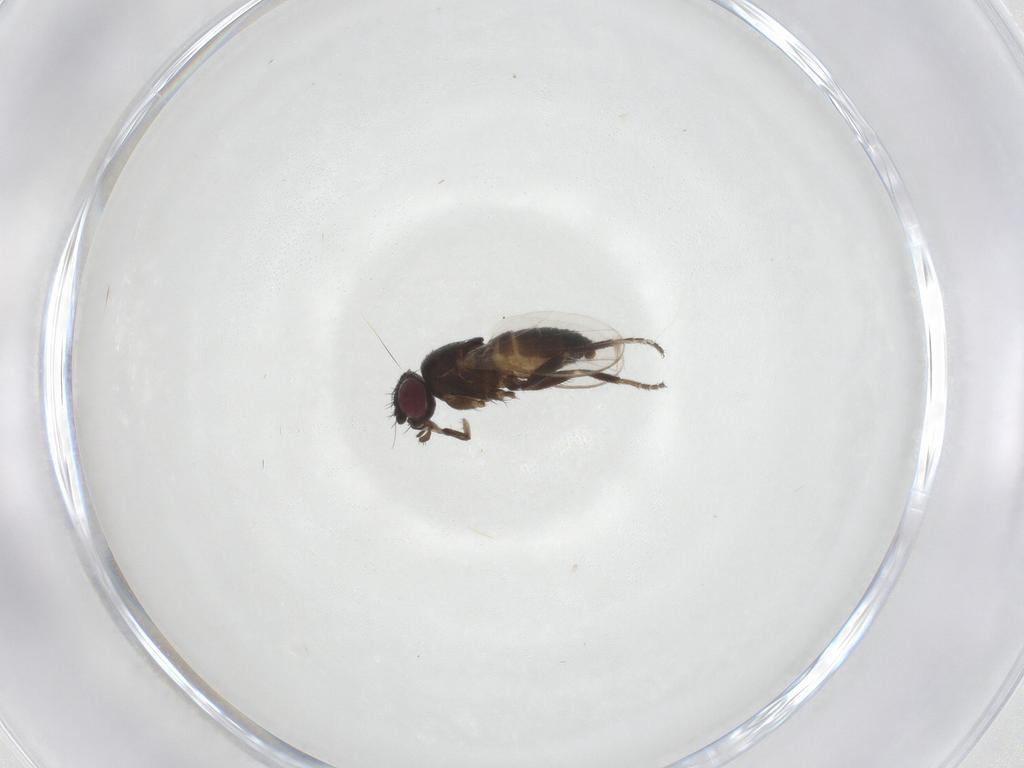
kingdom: Animalia
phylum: Arthropoda
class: Insecta
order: Diptera
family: Milichiidae
